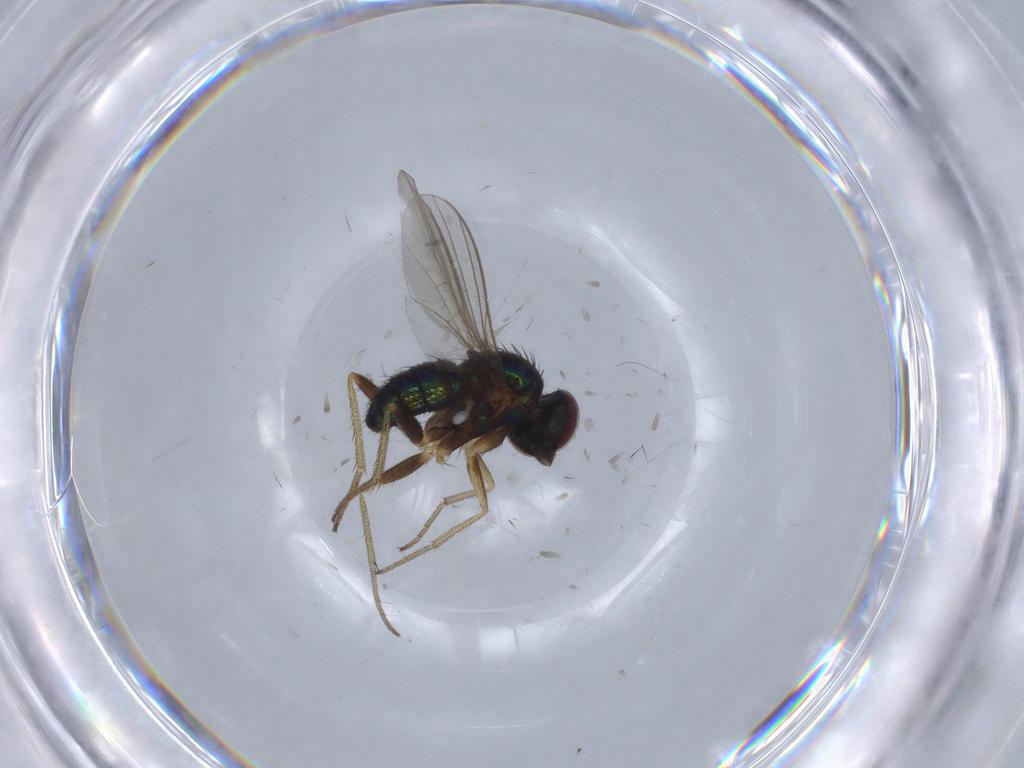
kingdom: Animalia
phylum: Arthropoda
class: Insecta
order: Diptera
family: Dolichopodidae
